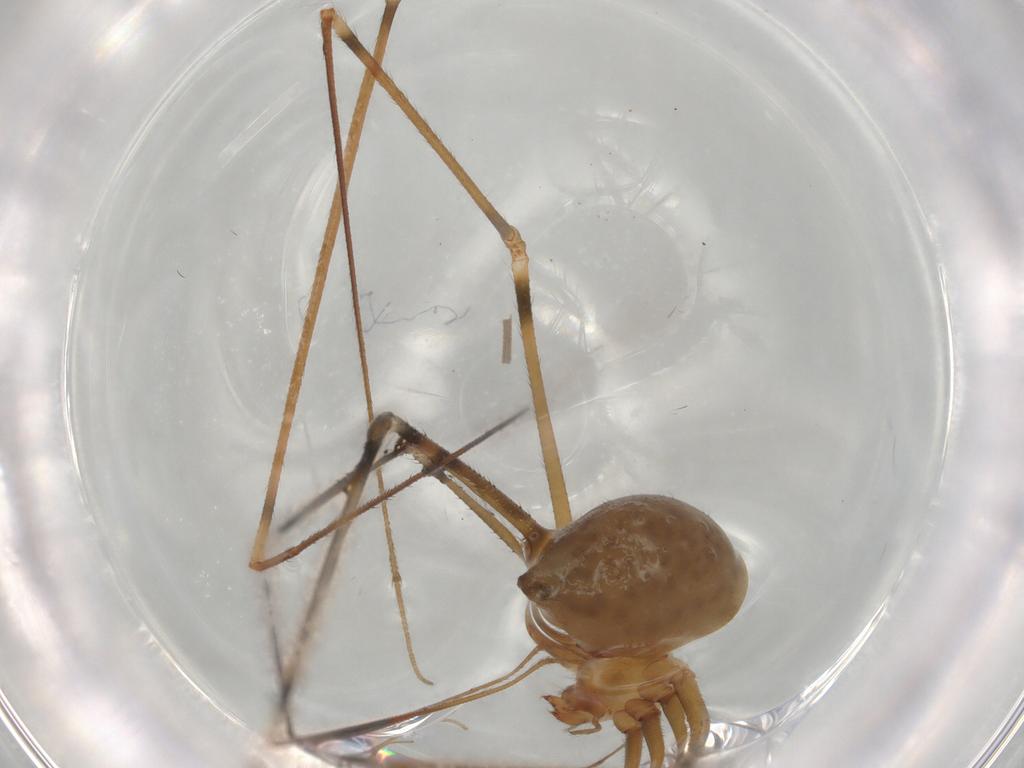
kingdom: Animalia
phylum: Arthropoda
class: Arachnida
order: Araneae
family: Pholcidae
